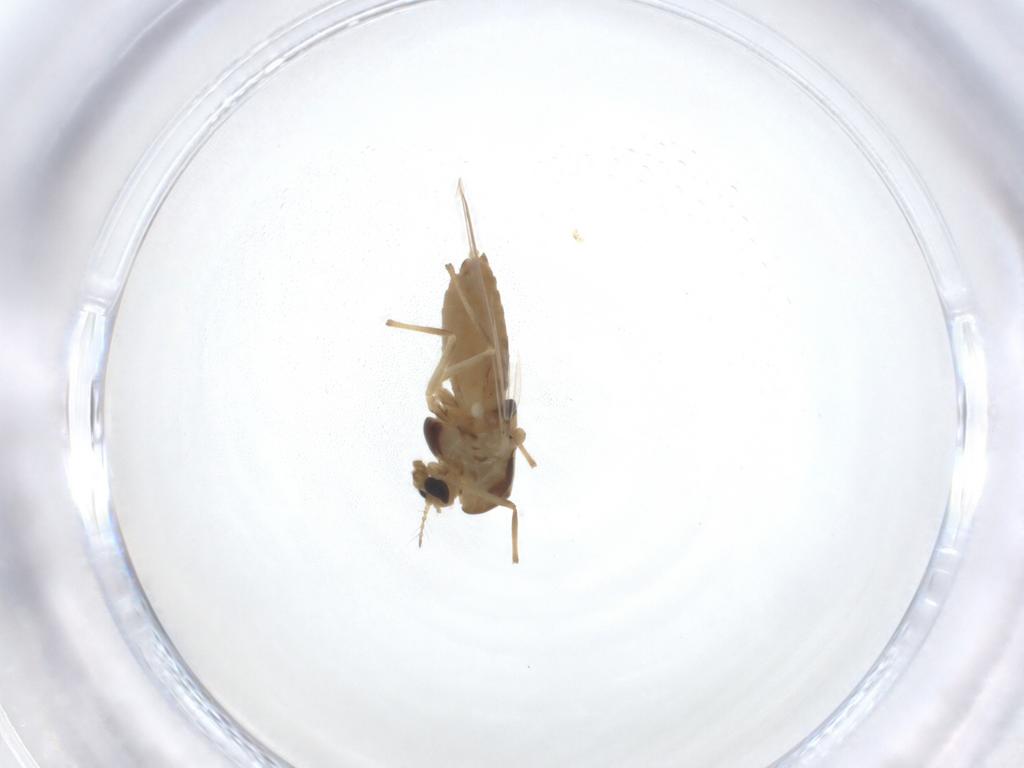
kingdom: Animalia
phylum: Arthropoda
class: Insecta
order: Diptera
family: Chironomidae
